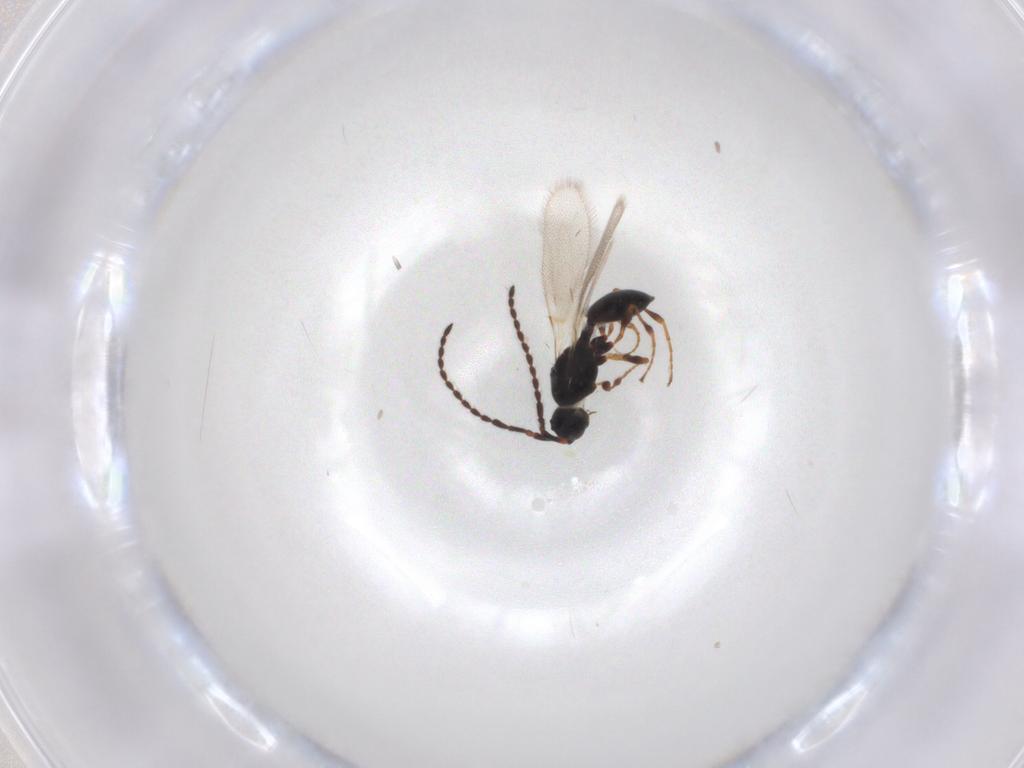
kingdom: Animalia
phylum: Arthropoda
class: Insecta
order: Hymenoptera
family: Diapriidae
